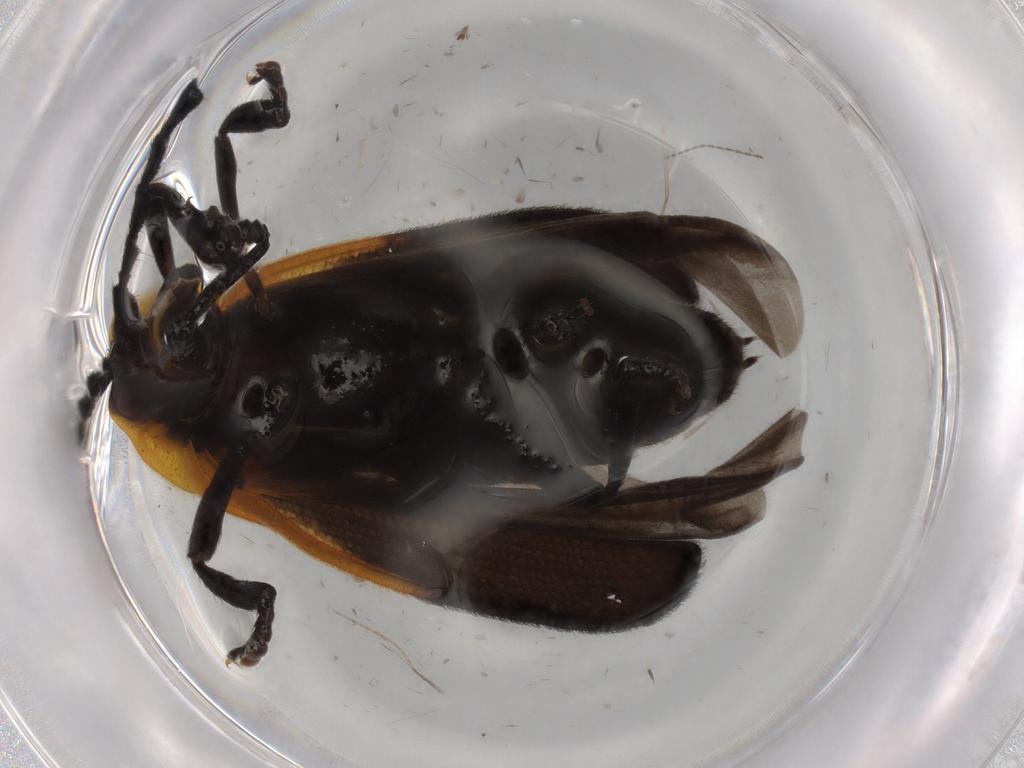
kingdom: Animalia
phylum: Arthropoda
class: Insecta
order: Coleoptera
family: Lycidae
